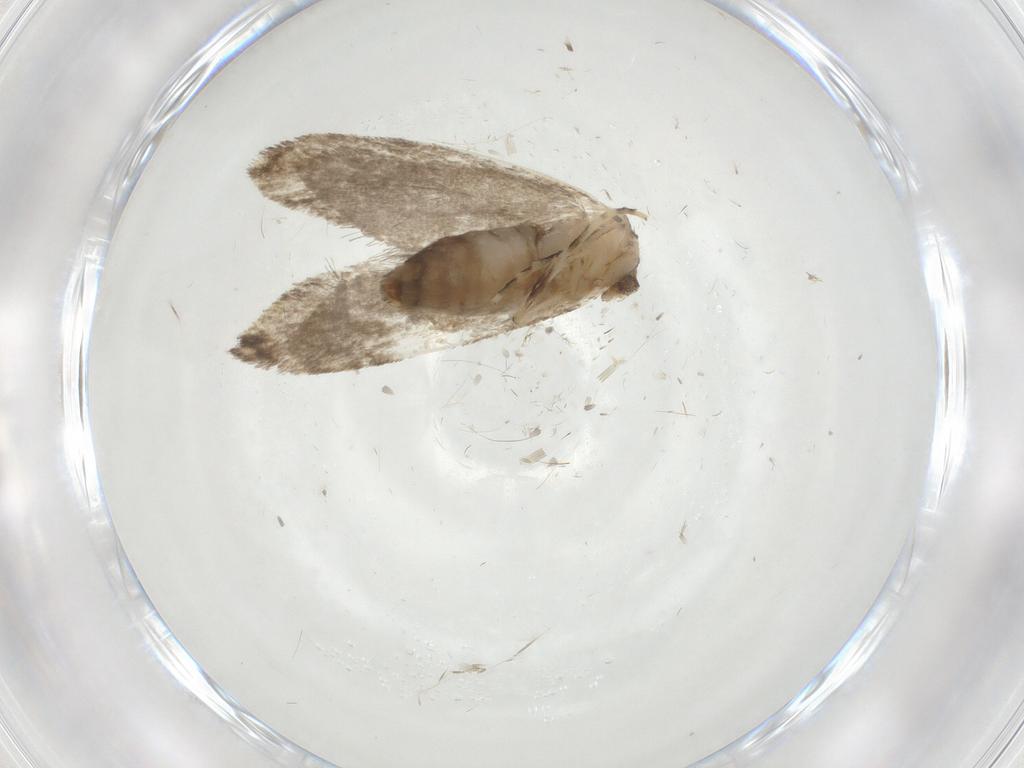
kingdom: Animalia
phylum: Arthropoda
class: Insecta
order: Lepidoptera
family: Tineidae
